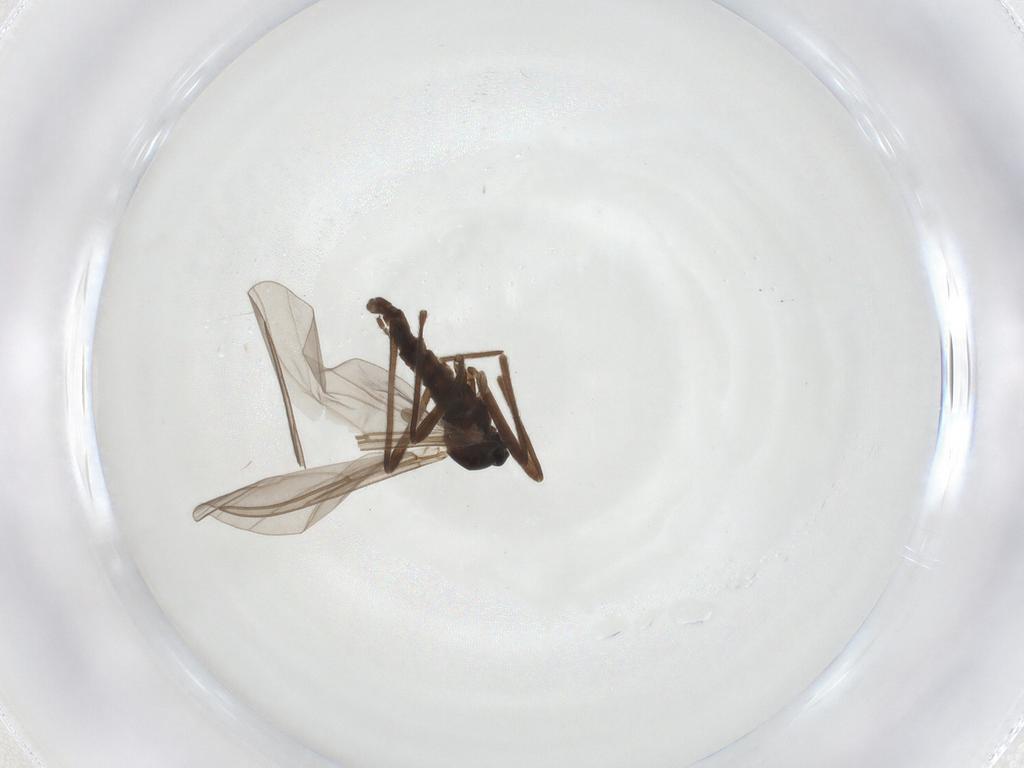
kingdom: Animalia
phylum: Arthropoda
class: Insecta
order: Diptera
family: Cecidomyiidae
